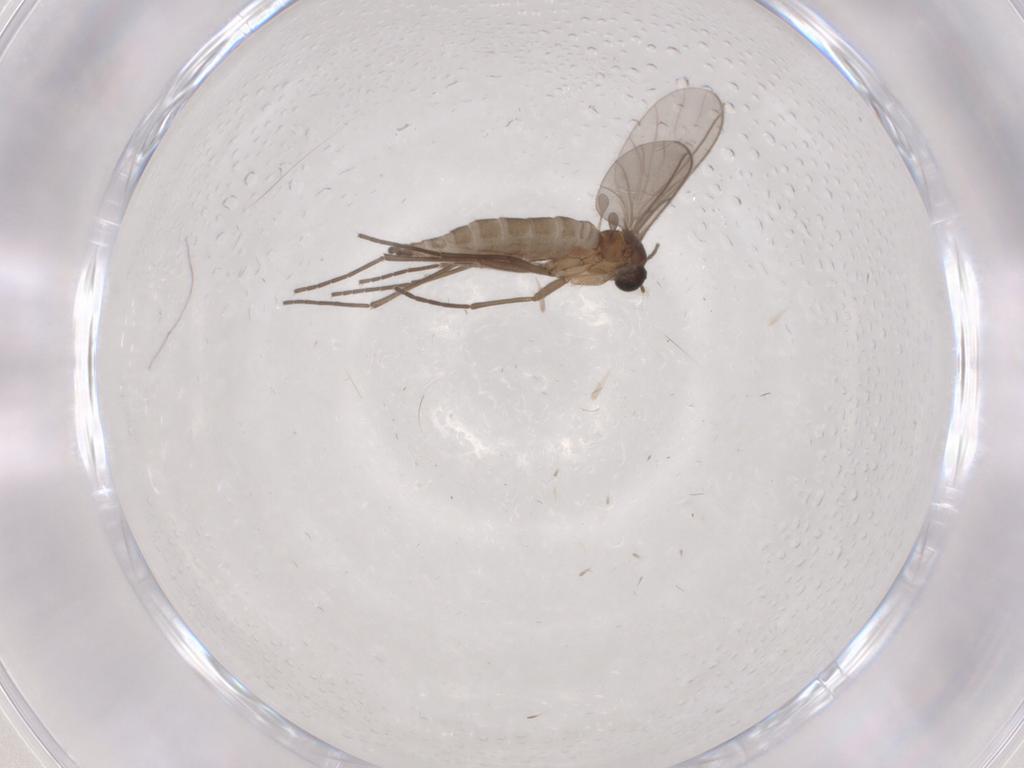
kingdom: Animalia
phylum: Arthropoda
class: Insecta
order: Diptera
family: Sciaridae
